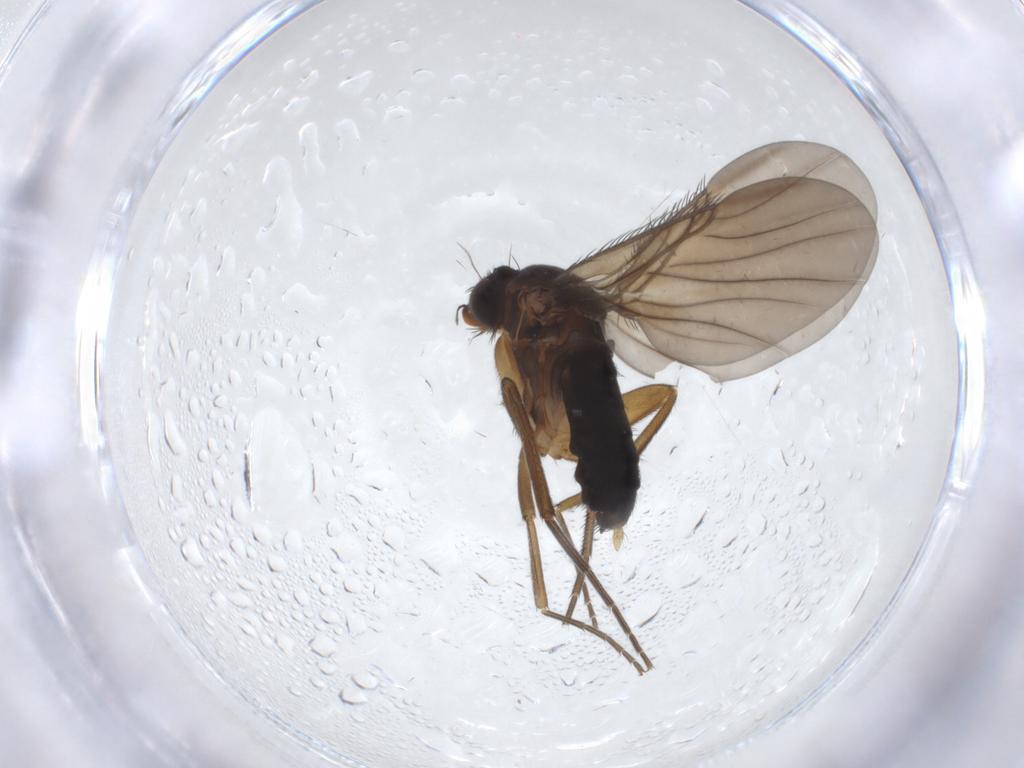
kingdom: Animalia
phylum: Arthropoda
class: Insecta
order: Diptera
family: Phoridae
